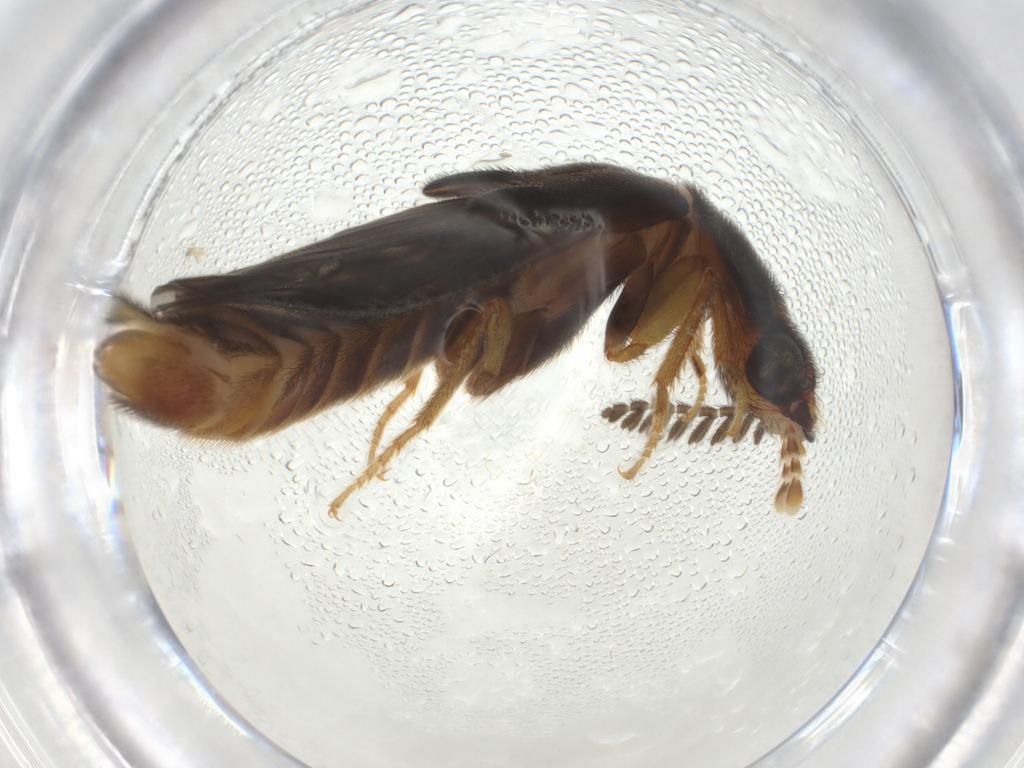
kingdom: Animalia
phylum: Arthropoda
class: Insecta
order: Coleoptera
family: Phengodidae
